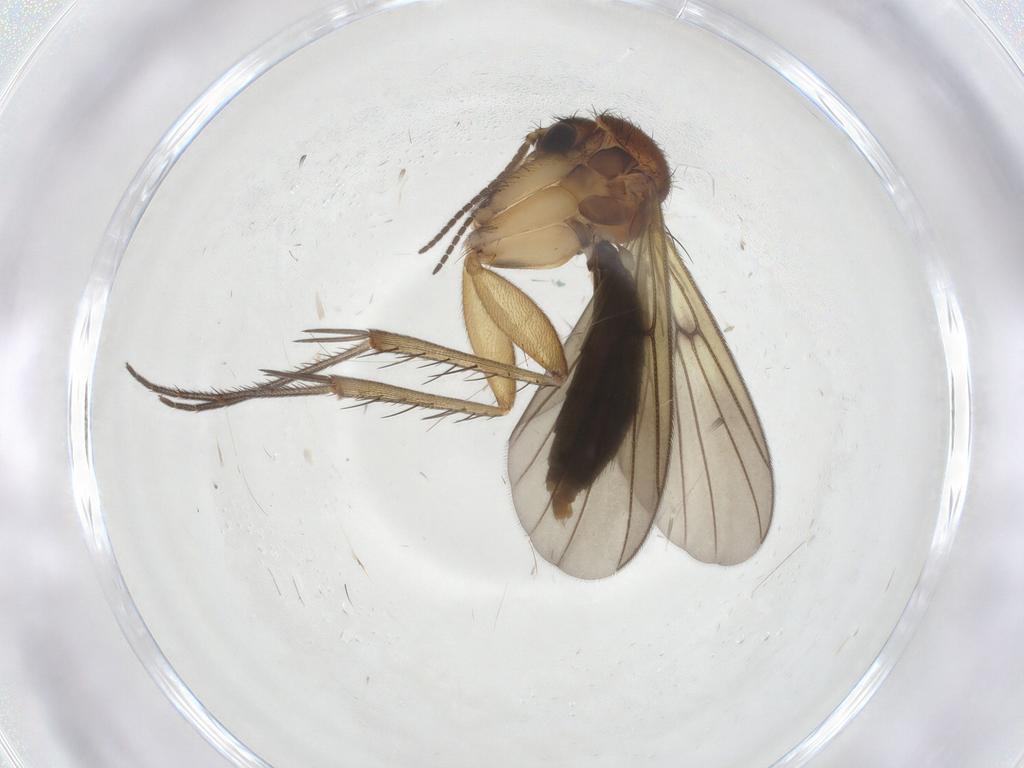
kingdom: Animalia
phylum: Arthropoda
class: Insecta
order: Diptera
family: Mycetophilidae
